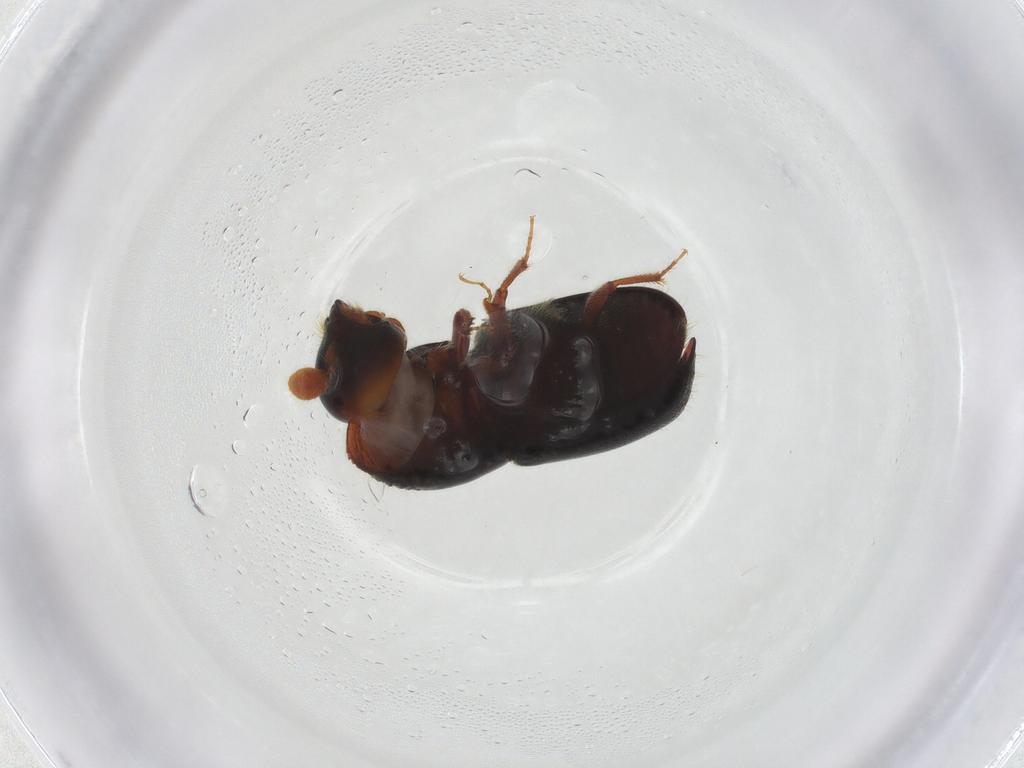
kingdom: Animalia
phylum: Arthropoda
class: Insecta
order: Coleoptera
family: Curculionidae
